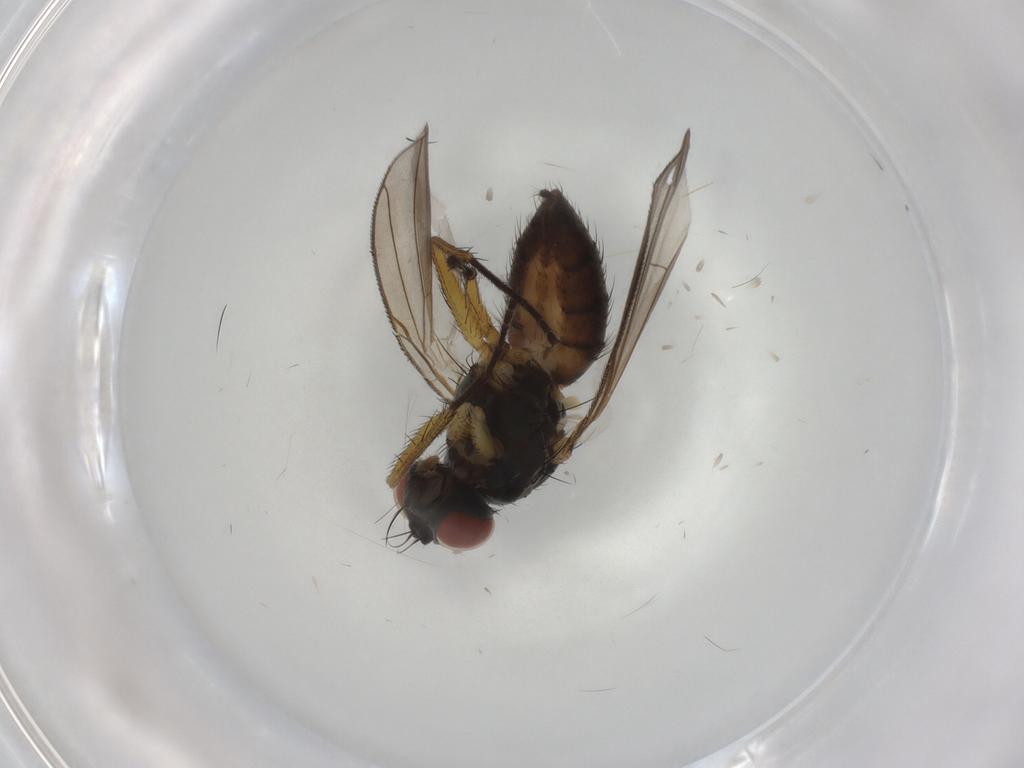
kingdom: Animalia
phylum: Arthropoda
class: Insecta
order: Diptera
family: Muscidae
